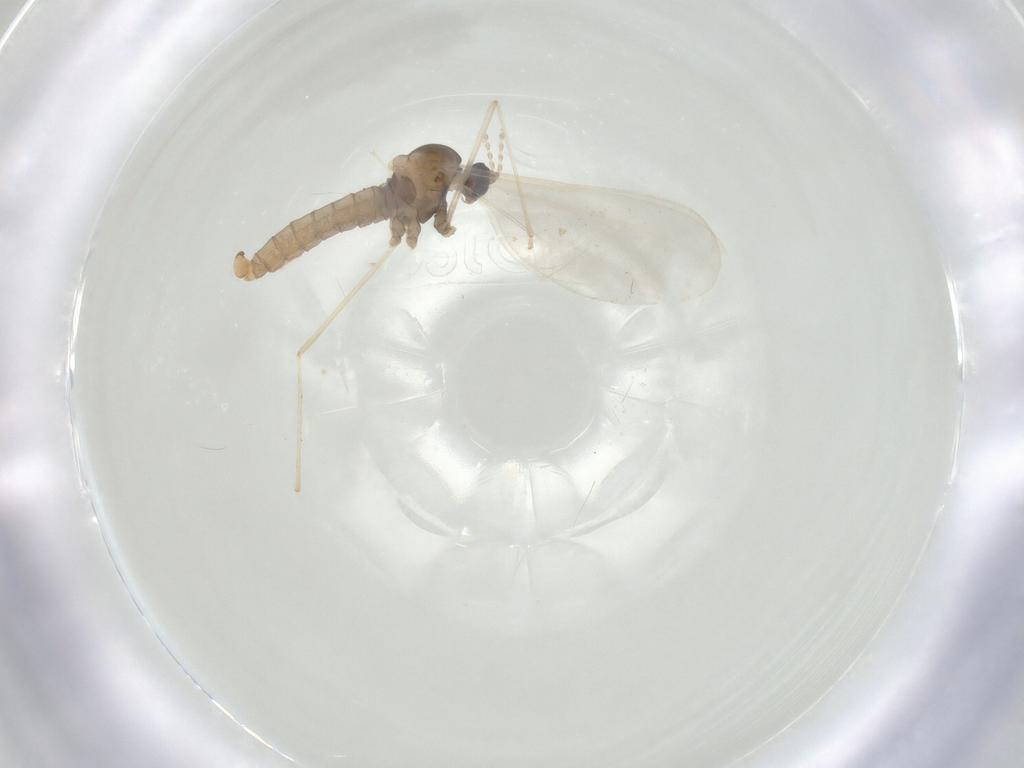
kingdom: Animalia
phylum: Arthropoda
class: Insecta
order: Diptera
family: Cecidomyiidae
